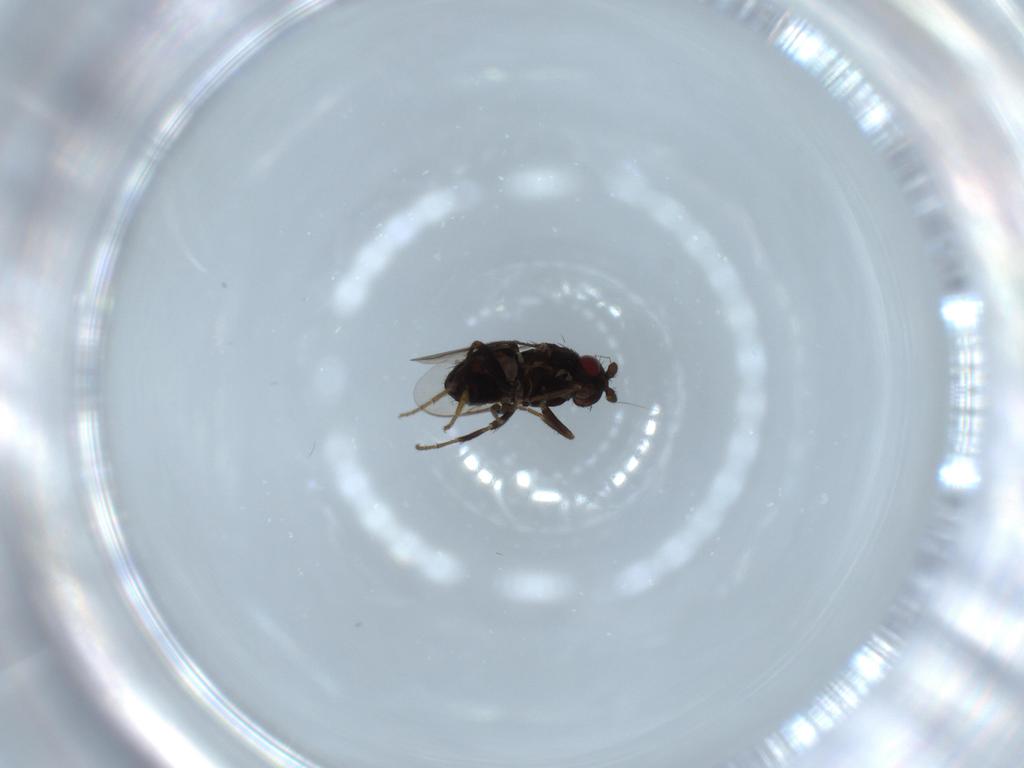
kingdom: Animalia
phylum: Arthropoda
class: Insecta
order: Diptera
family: Sphaeroceridae
